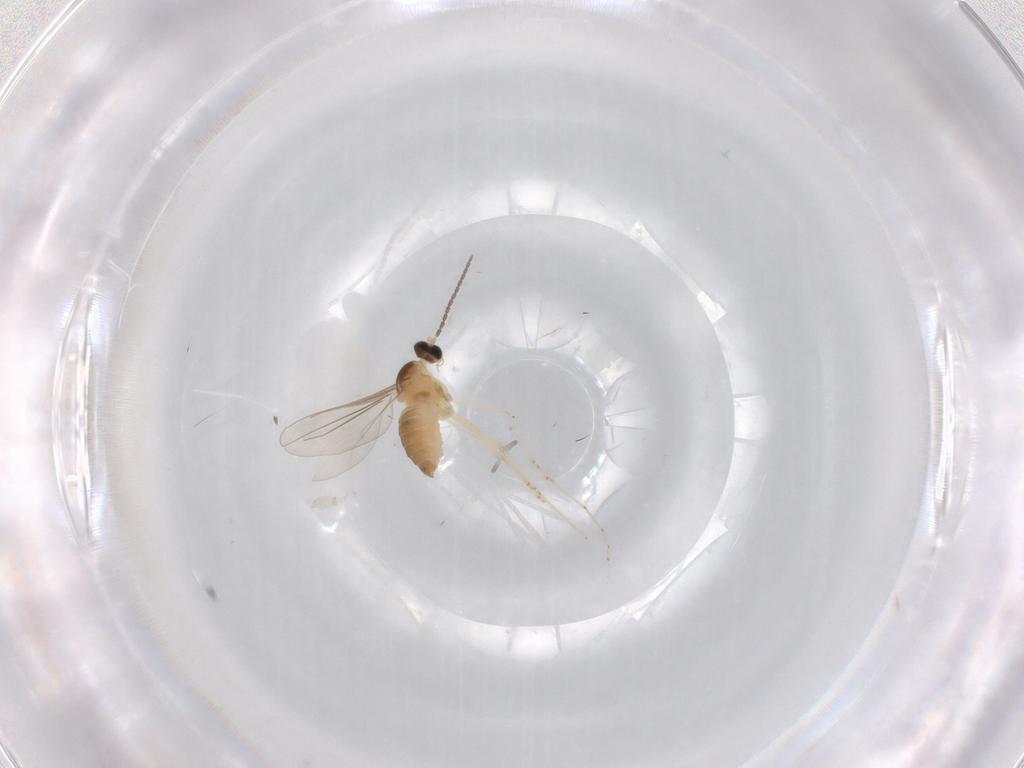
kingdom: Animalia
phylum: Arthropoda
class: Insecta
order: Diptera
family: Cecidomyiidae
